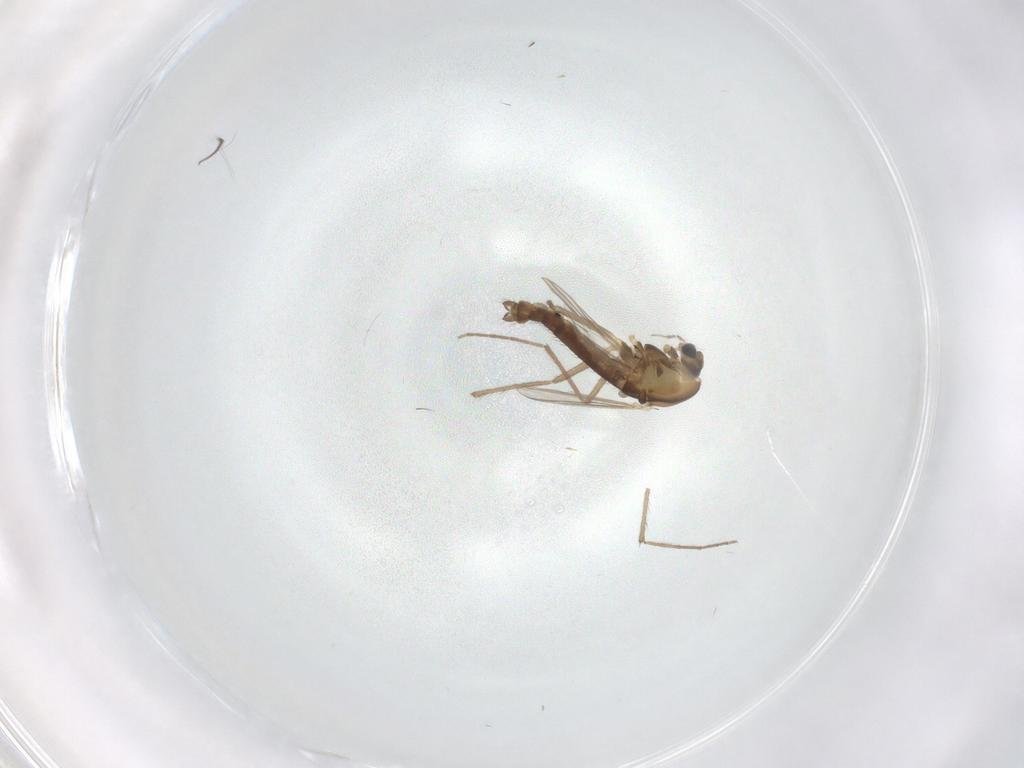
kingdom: Animalia
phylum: Arthropoda
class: Insecta
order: Diptera
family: Chironomidae
